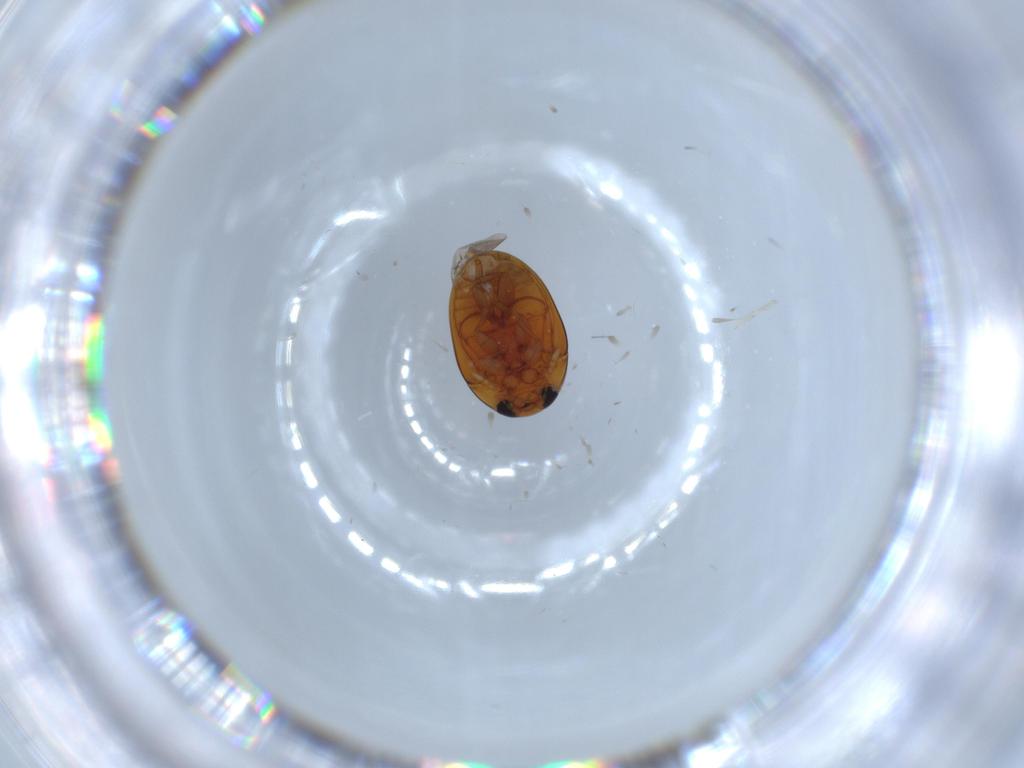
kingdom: Animalia
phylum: Arthropoda
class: Insecta
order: Coleoptera
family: Phalacridae
